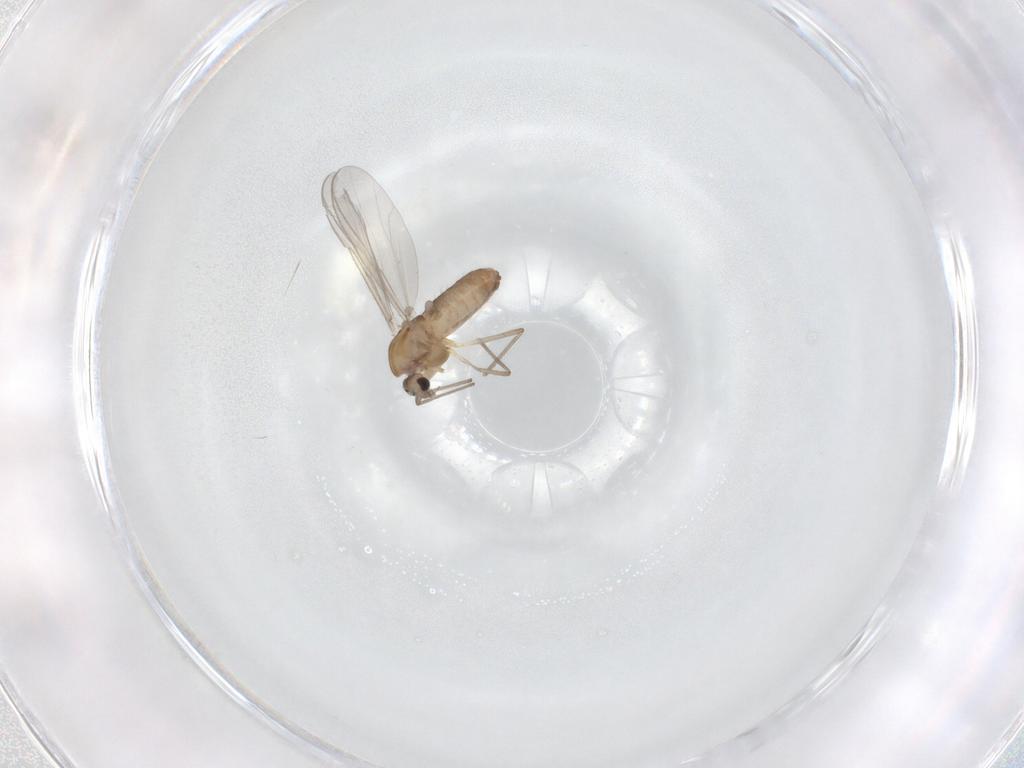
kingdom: Animalia
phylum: Arthropoda
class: Insecta
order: Diptera
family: Chironomidae
